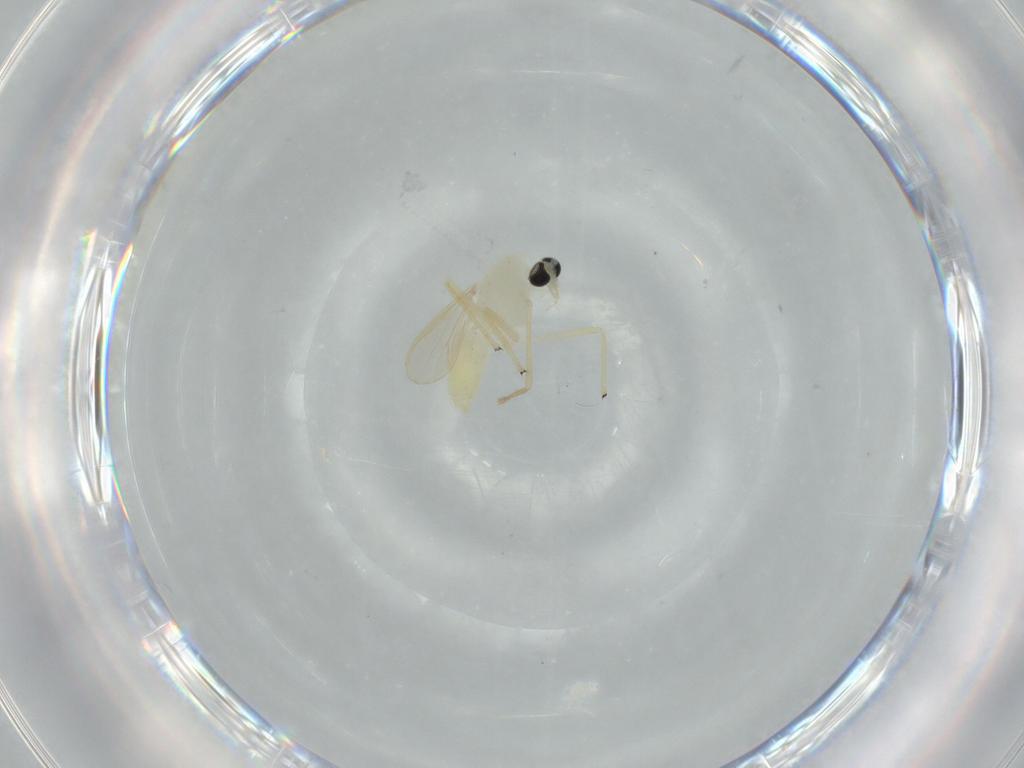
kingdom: Animalia
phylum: Arthropoda
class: Insecta
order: Diptera
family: Chironomidae
